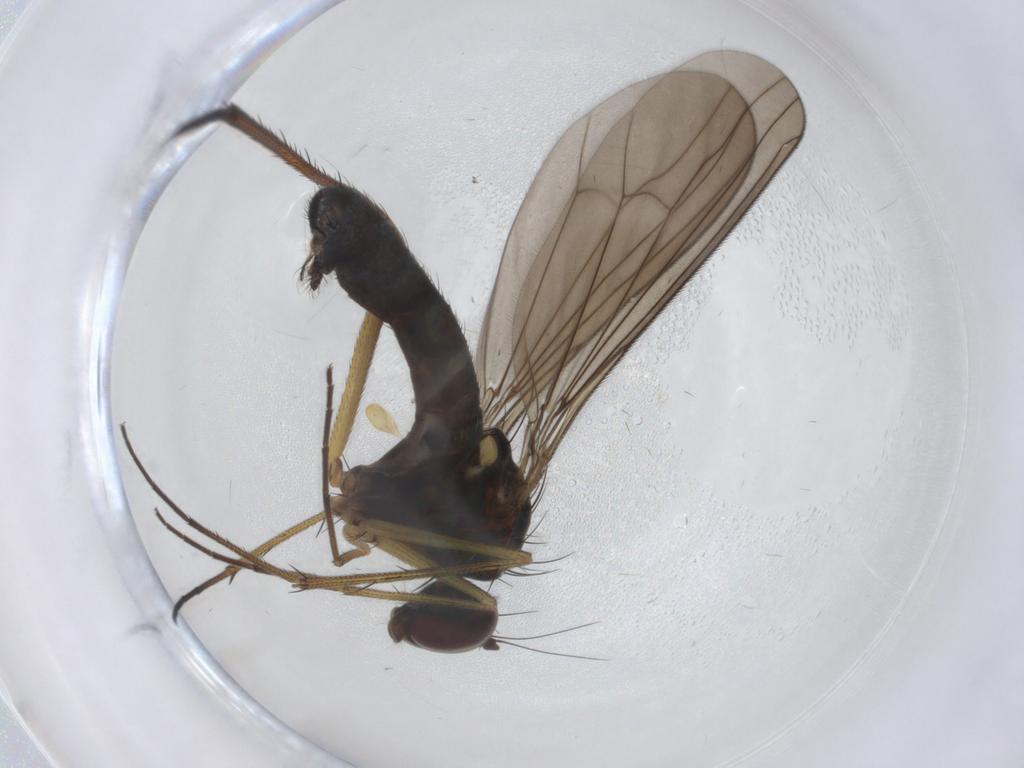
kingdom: Animalia
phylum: Arthropoda
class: Insecta
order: Diptera
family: Dolichopodidae
